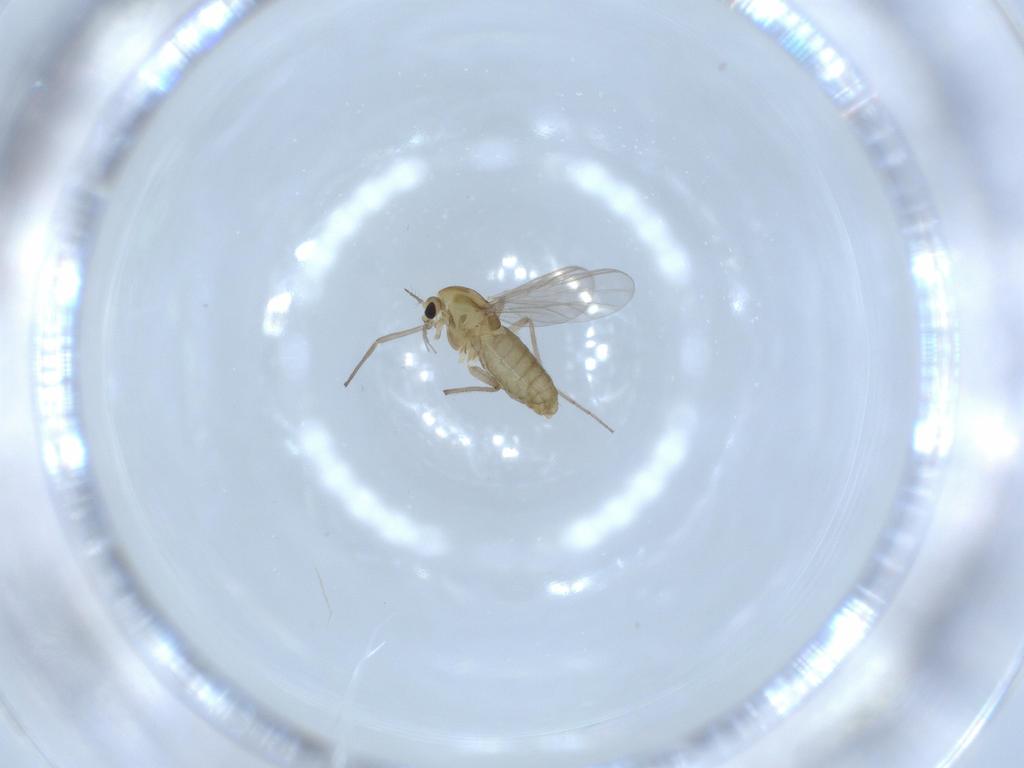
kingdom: Animalia
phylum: Arthropoda
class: Insecta
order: Diptera
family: Chironomidae
